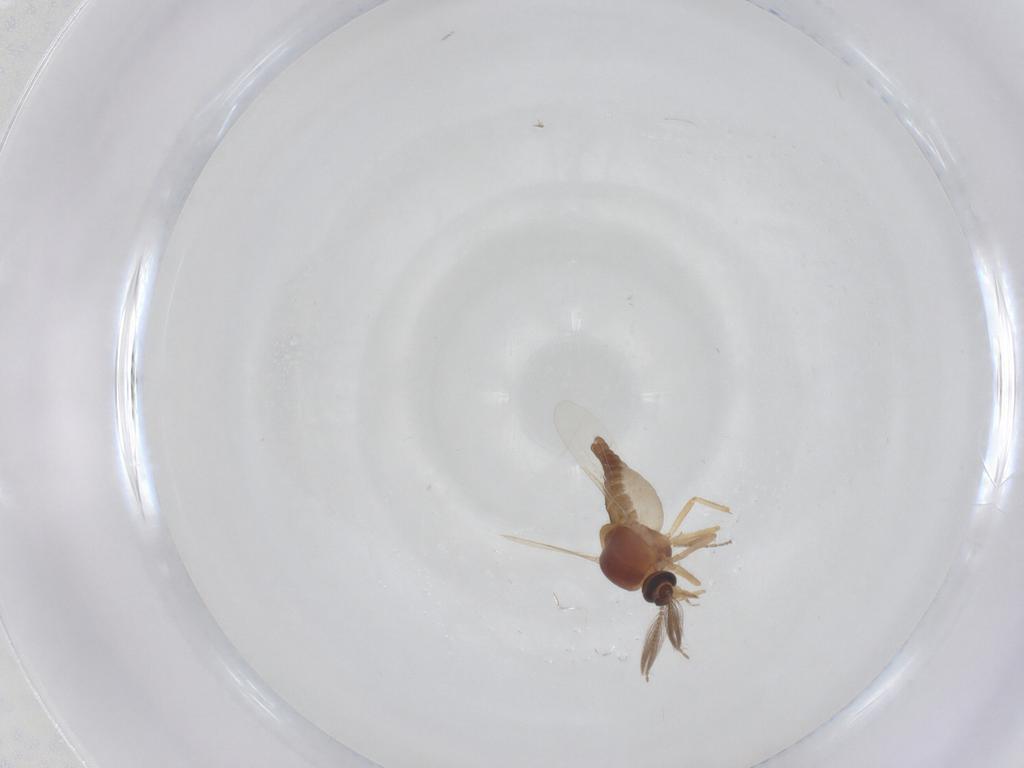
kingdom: Animalia
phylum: Arthropoda
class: Insecta
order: Diptera
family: Ceratopogonidae
